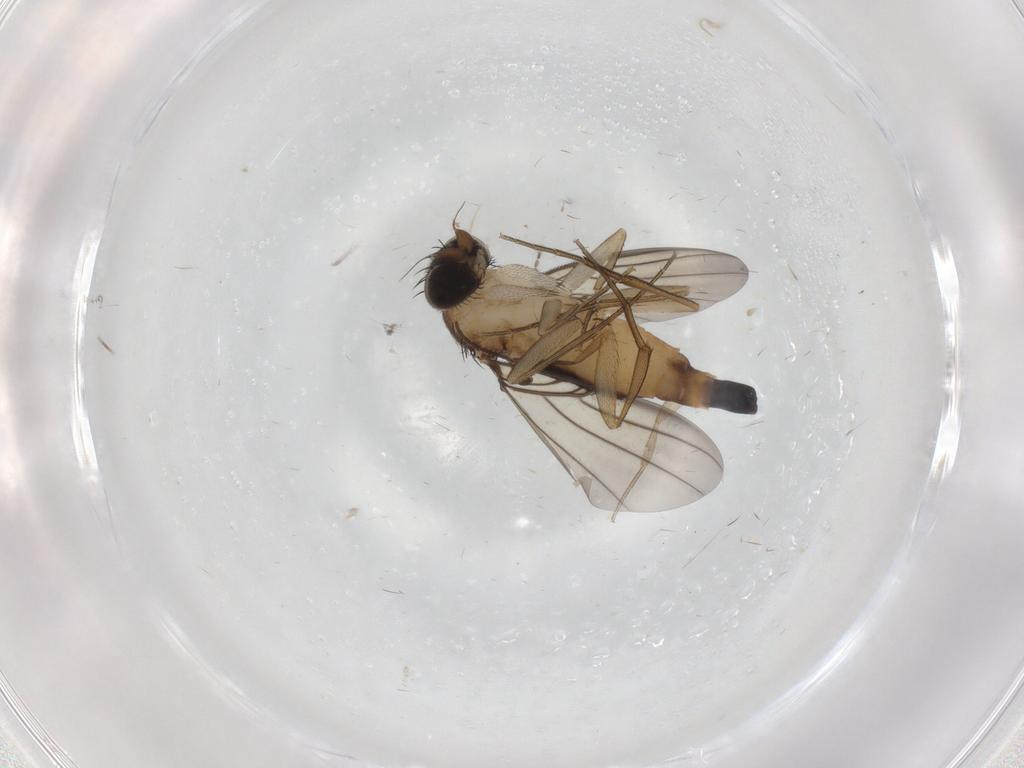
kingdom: Animalia
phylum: Arthropoda
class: Insecta
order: Diptera
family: Phoridae
